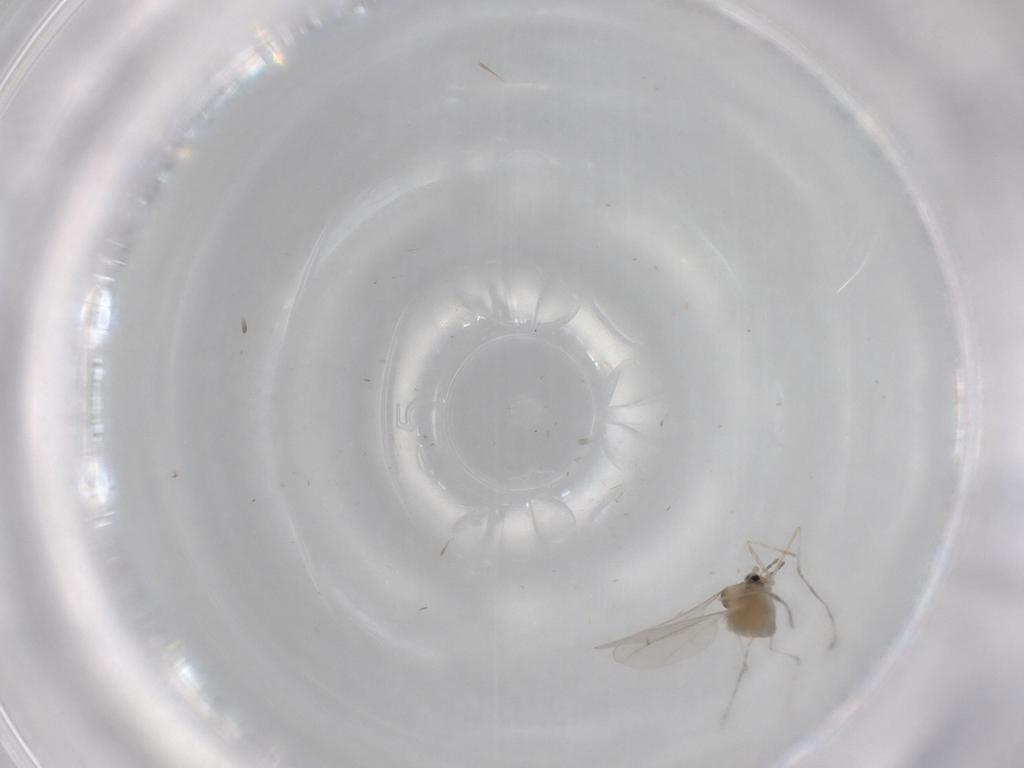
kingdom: Animalia
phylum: Arthropoda
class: Insecta
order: Diptera
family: Cecidomyiidae
